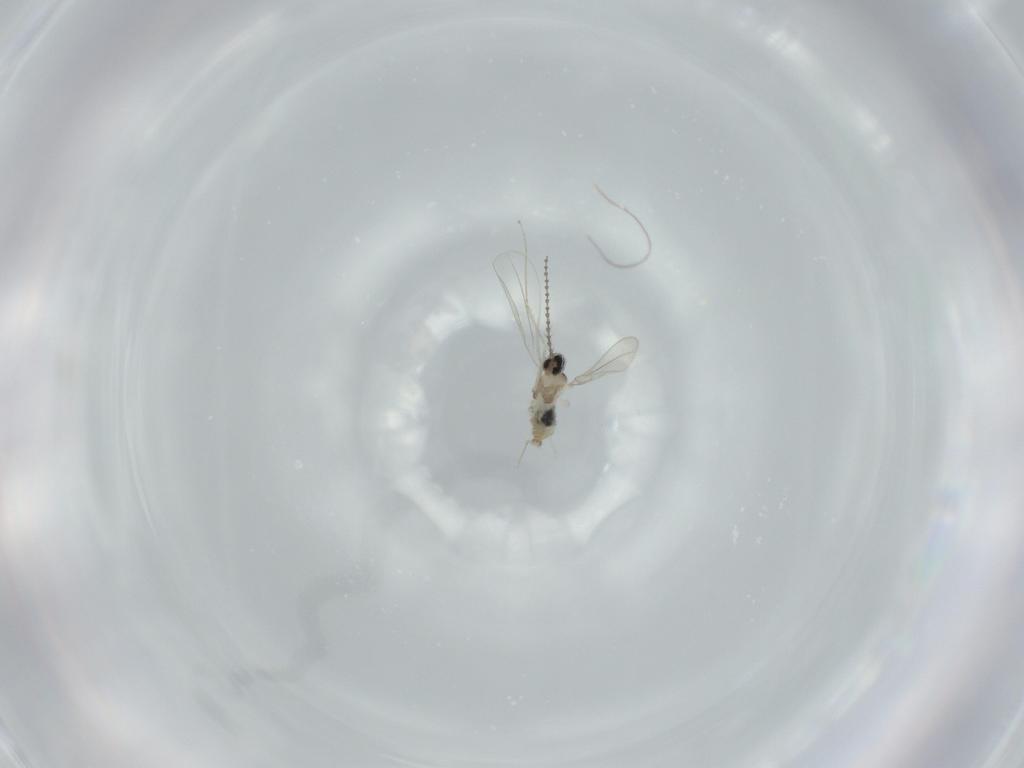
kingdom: Animalia
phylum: Arthropoda
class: Insecta
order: Diptera
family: Cecidomyiidae
